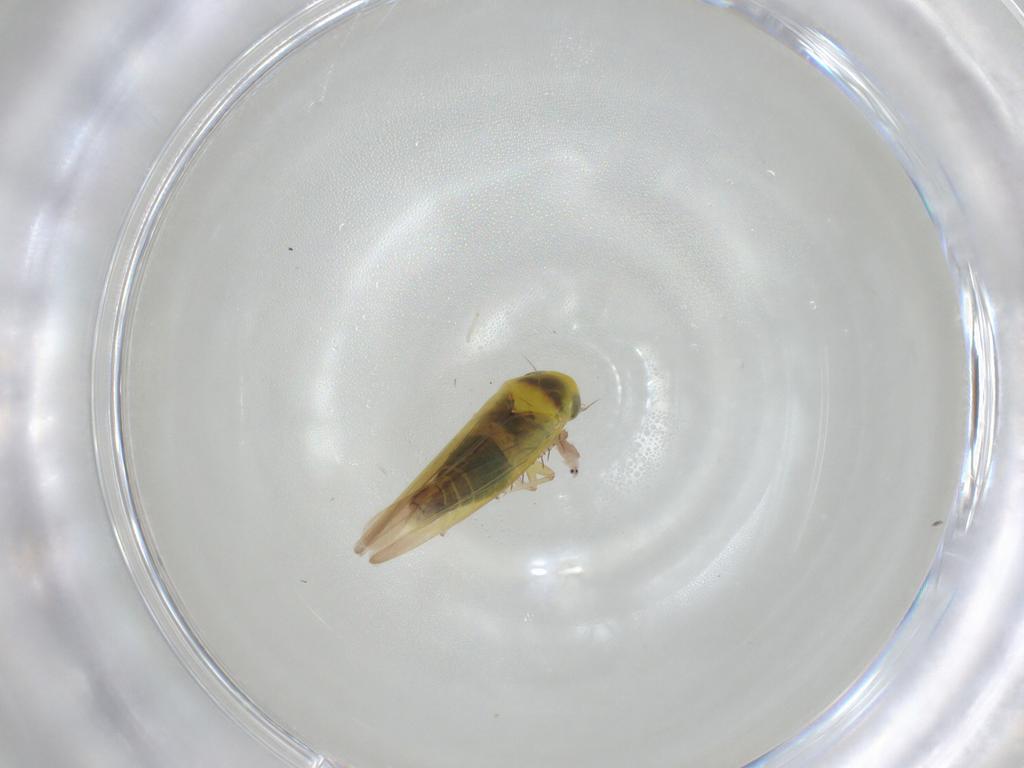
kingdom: Animalia
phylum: Arthropoda
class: Insecta
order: Hemiptera
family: Cicadellidae
